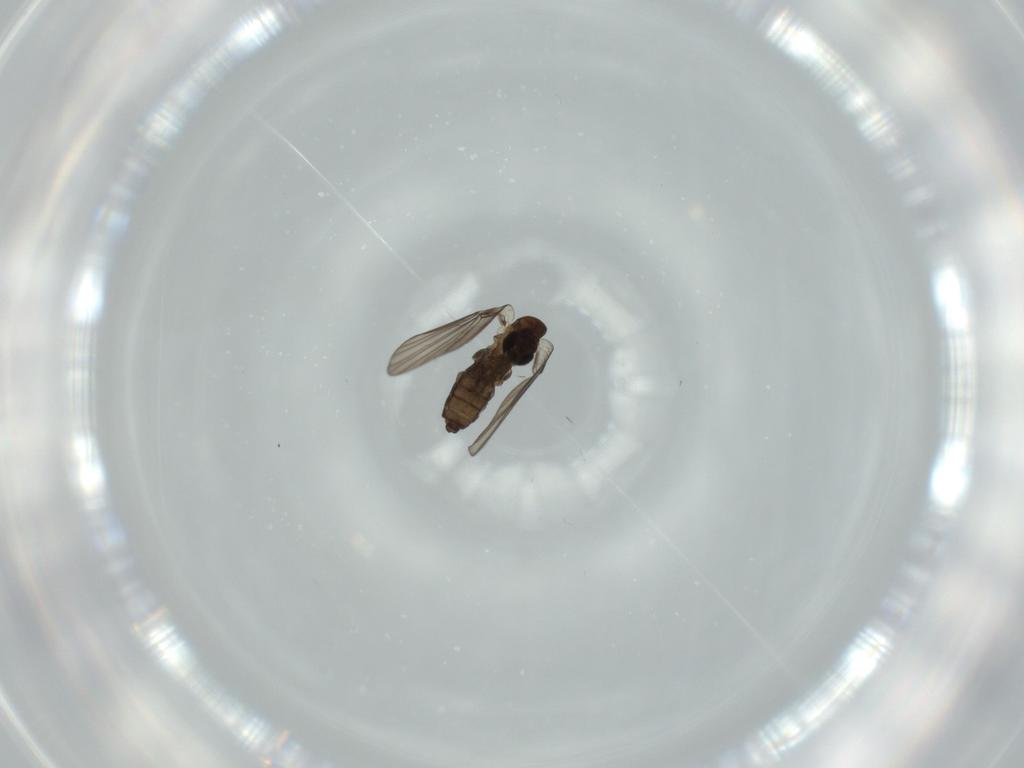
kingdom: Animalia
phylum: Arthropoda
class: Insecta
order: Diptera
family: Psychodidae
